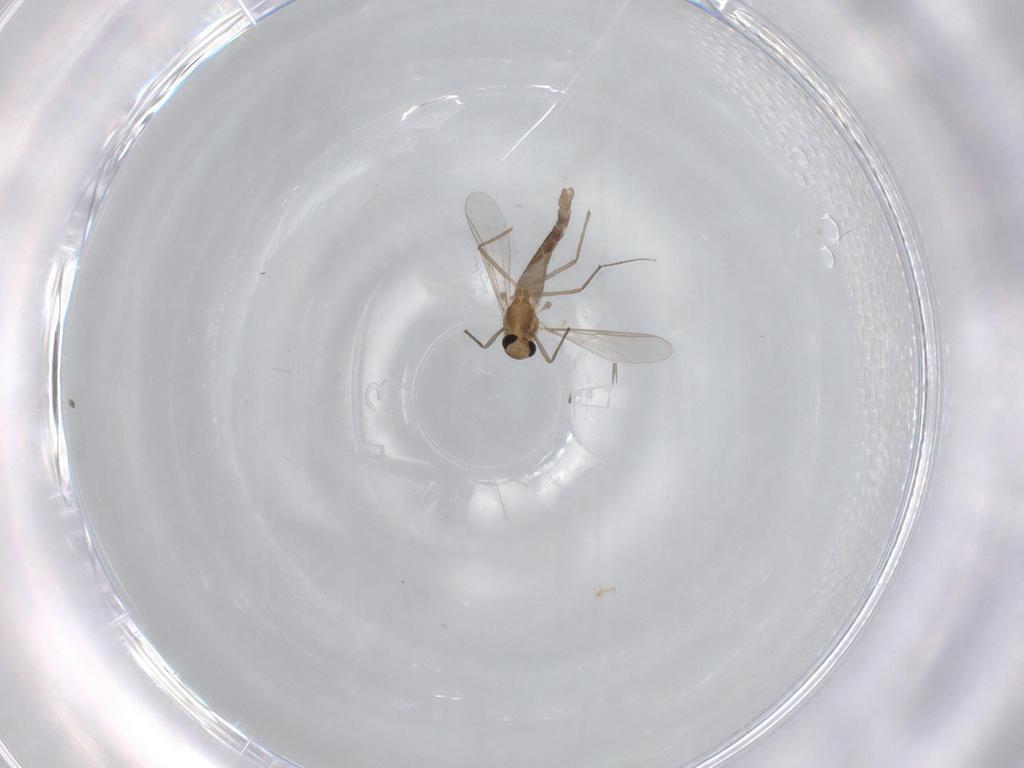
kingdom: Animalia
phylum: Arthropoda
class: Insecta
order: Diptera
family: Chironomidae
